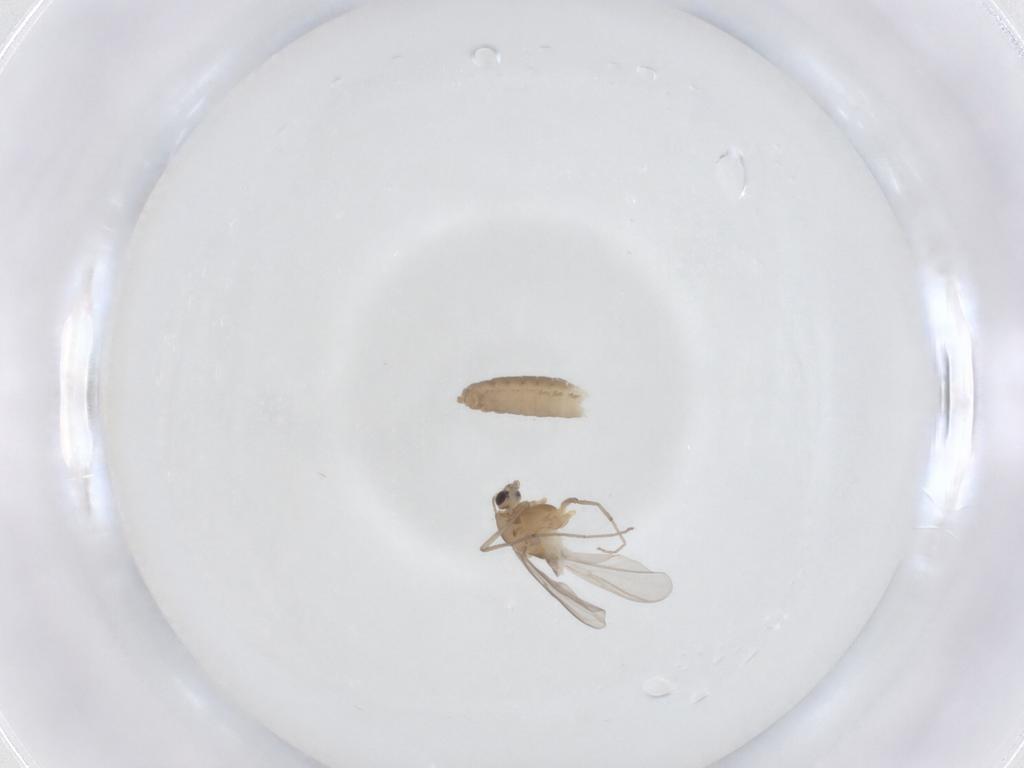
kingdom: Animalia
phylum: Arthropoda
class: Insecta
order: Diptera
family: Chironomidae
